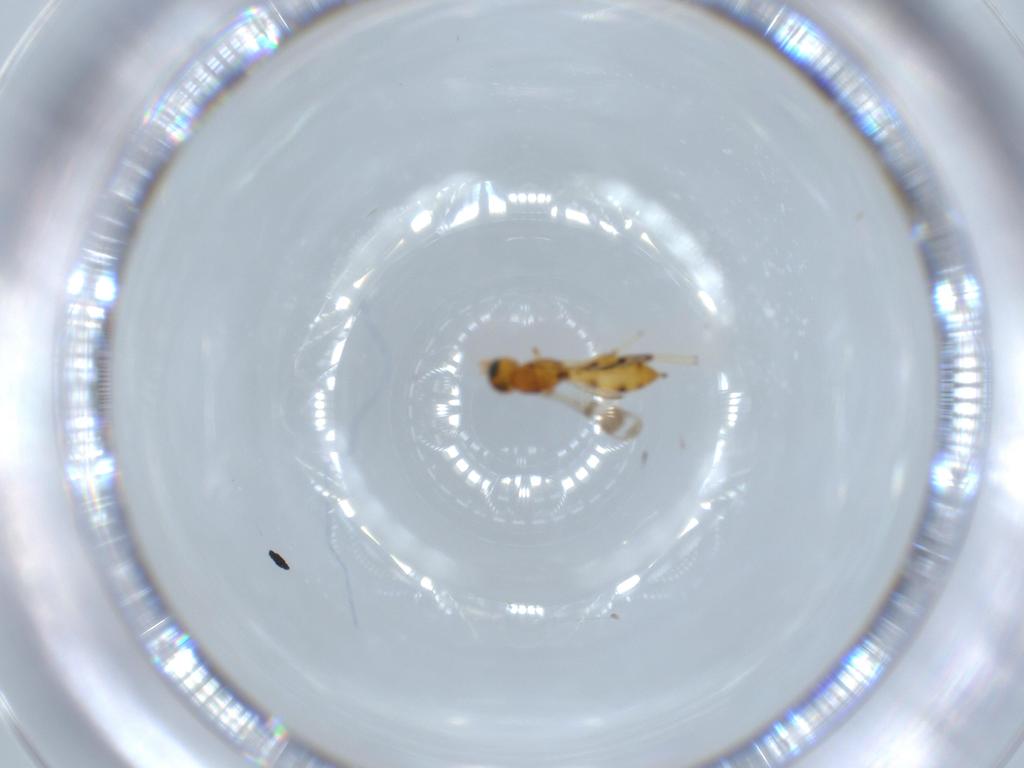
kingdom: Animalia
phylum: Arthropoda
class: Insecta
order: Hymenoptera
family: Scelionidae
